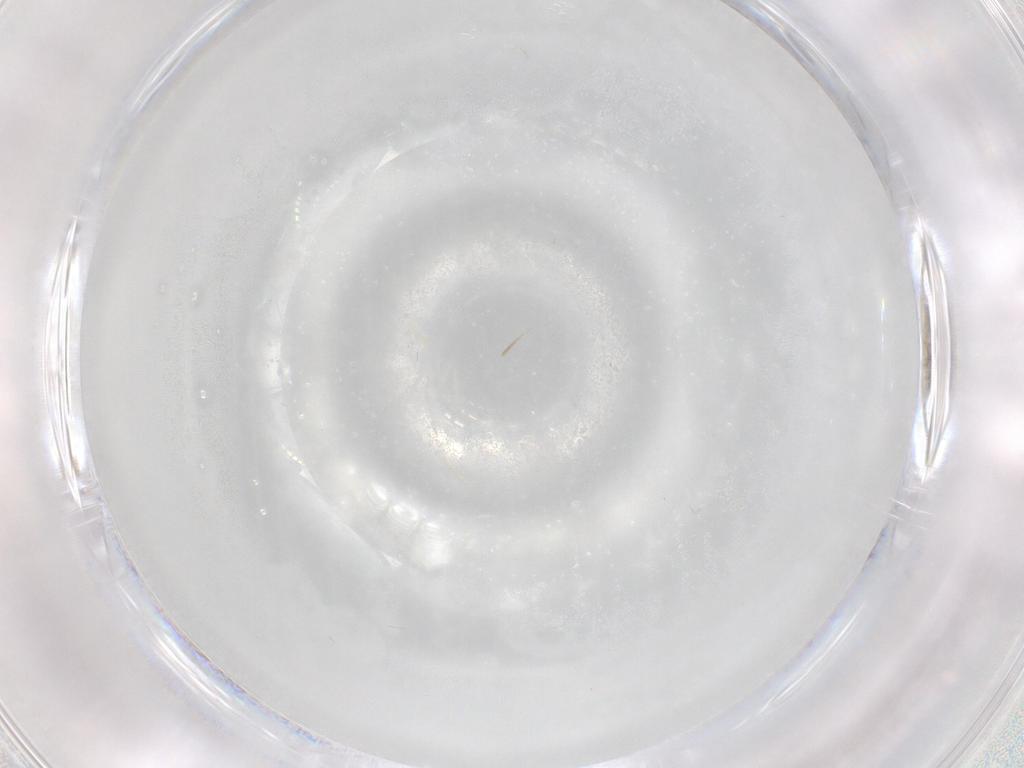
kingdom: Animalia
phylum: Arthropoda
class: Insecta
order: Diptera
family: Cecidomyiidae
